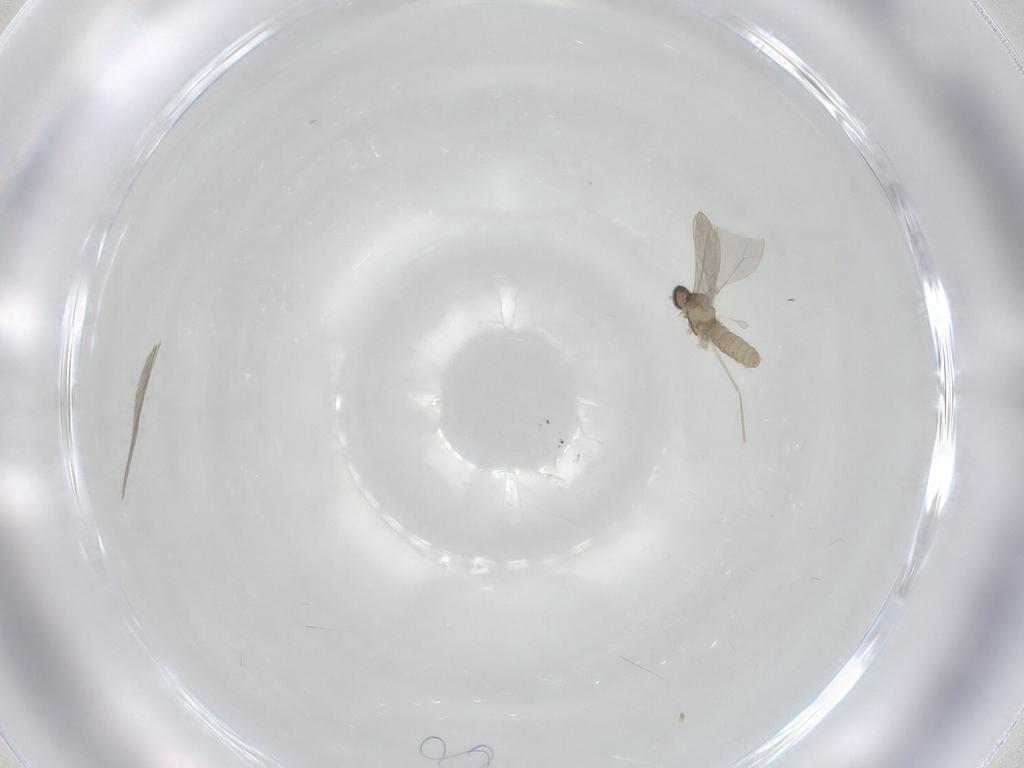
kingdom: Animalia
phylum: Arthropoda
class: Insecta
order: Diptera
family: Cecidomyiidae
